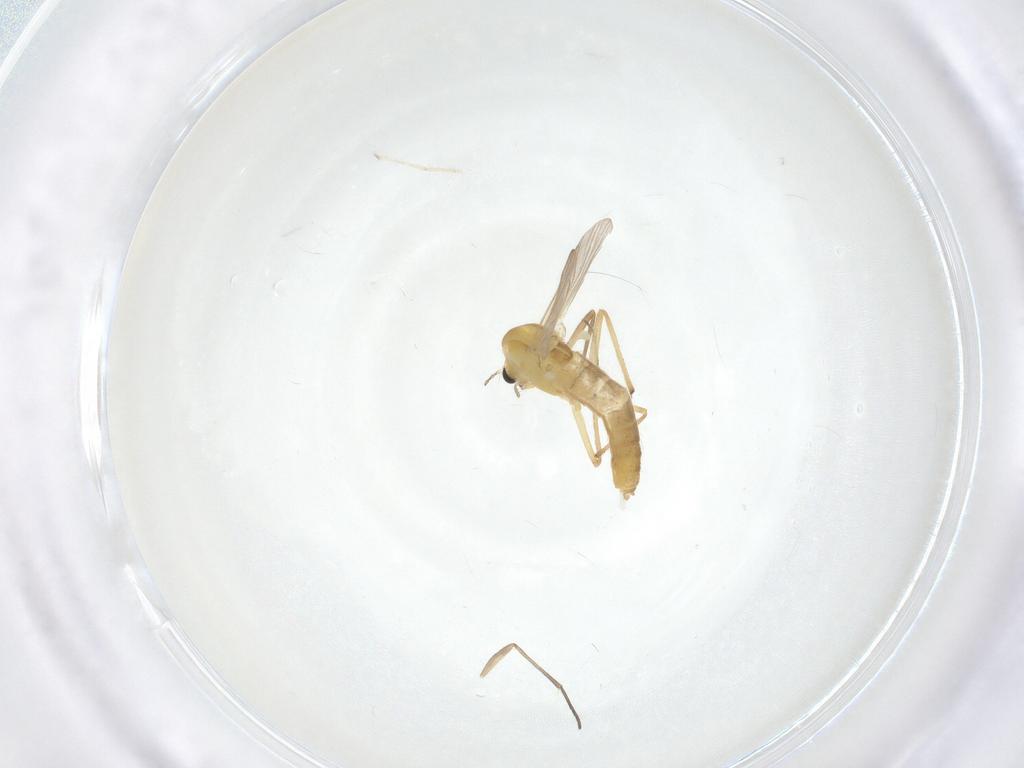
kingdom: Animalia
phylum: Arthropoda
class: Insecta
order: Diptera
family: Chironomidae
